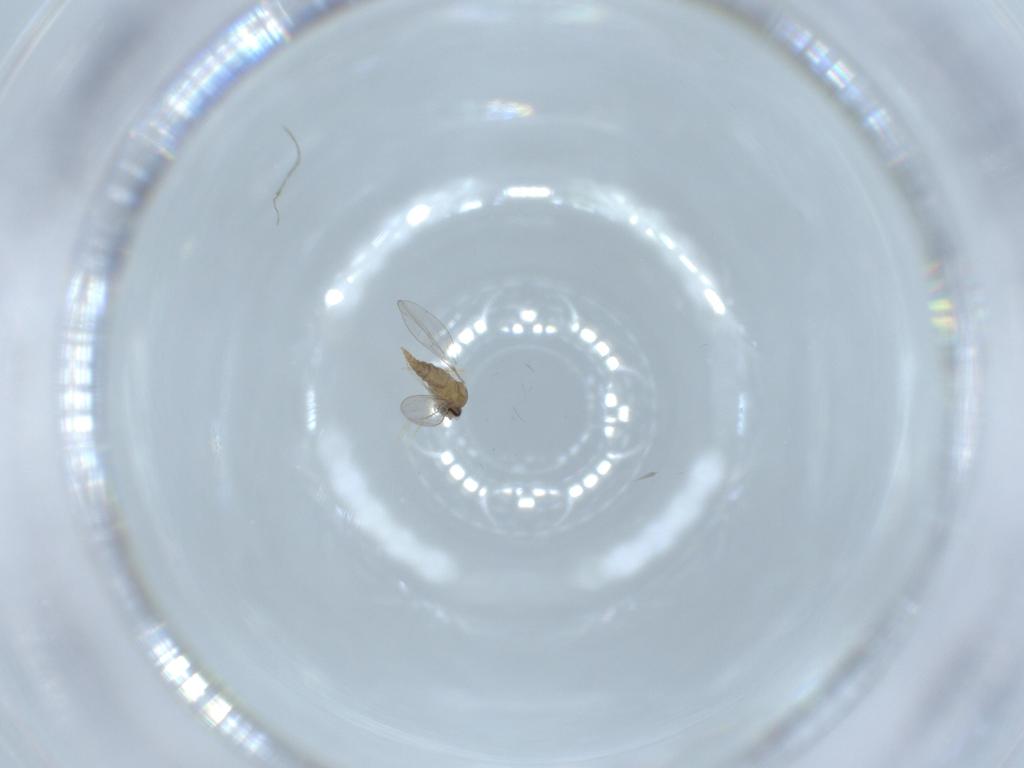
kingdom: Animalia
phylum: Arthropoda
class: Insecta
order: Diptera
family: Cecidomyiidae
